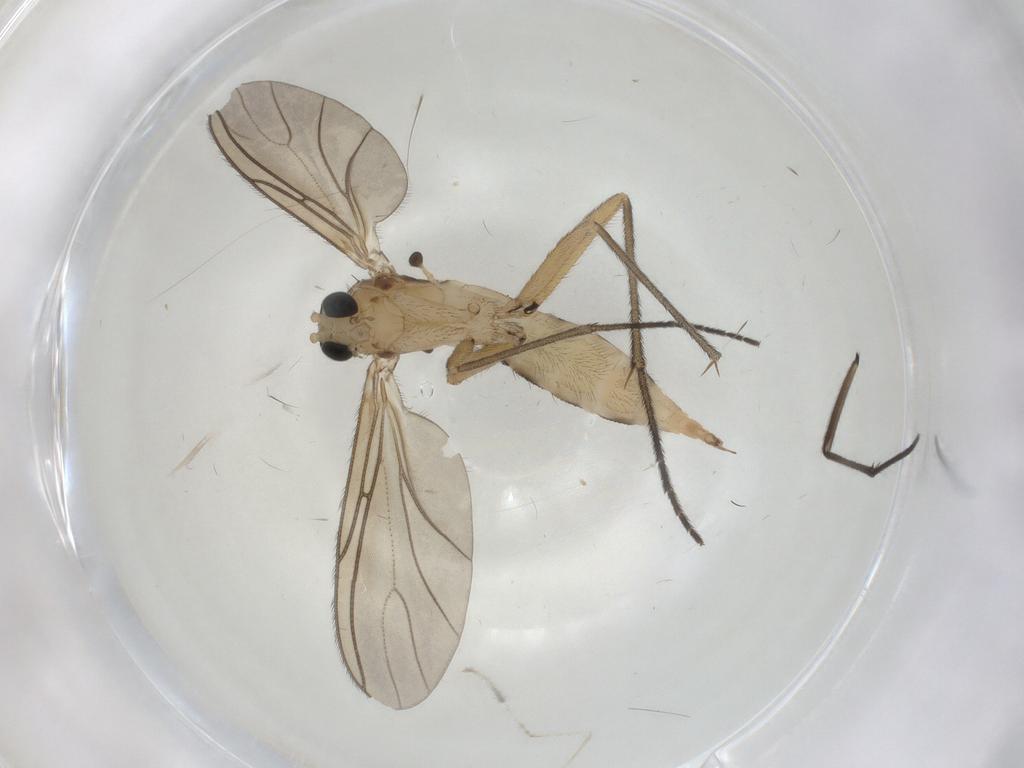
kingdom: Animalia
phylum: Arthropoda
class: Insecta
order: Diptera
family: Sciaridae
